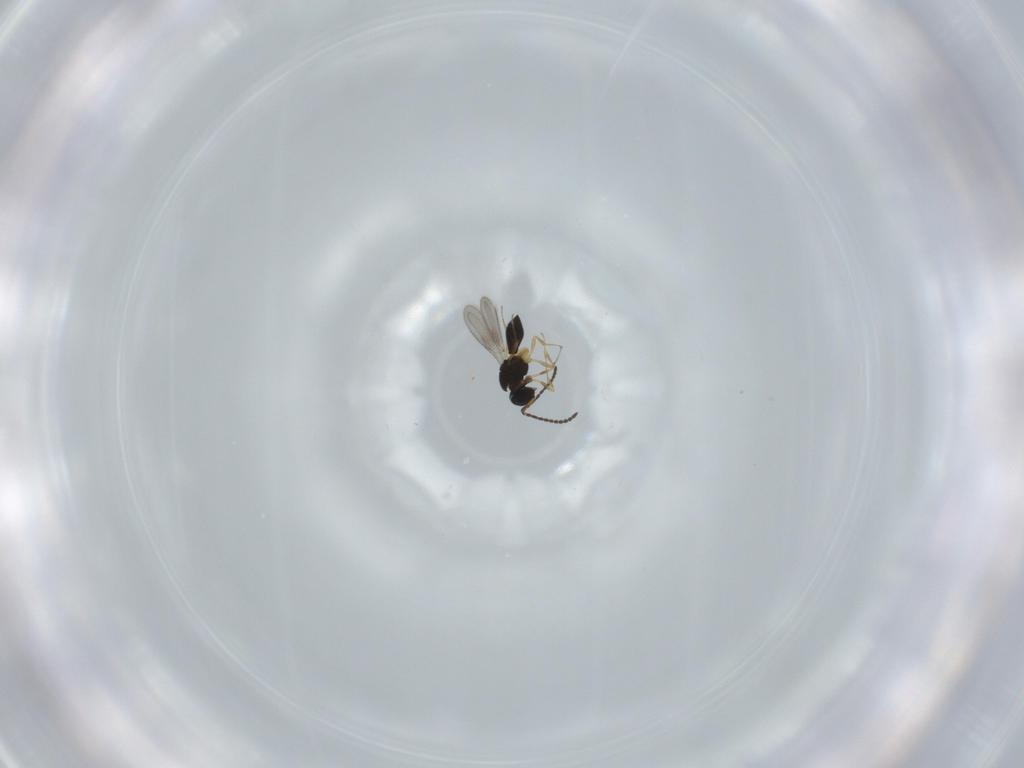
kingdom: Animalia
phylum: Arthropoda
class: Insecta
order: Hymenoptera
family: Scelionidae
